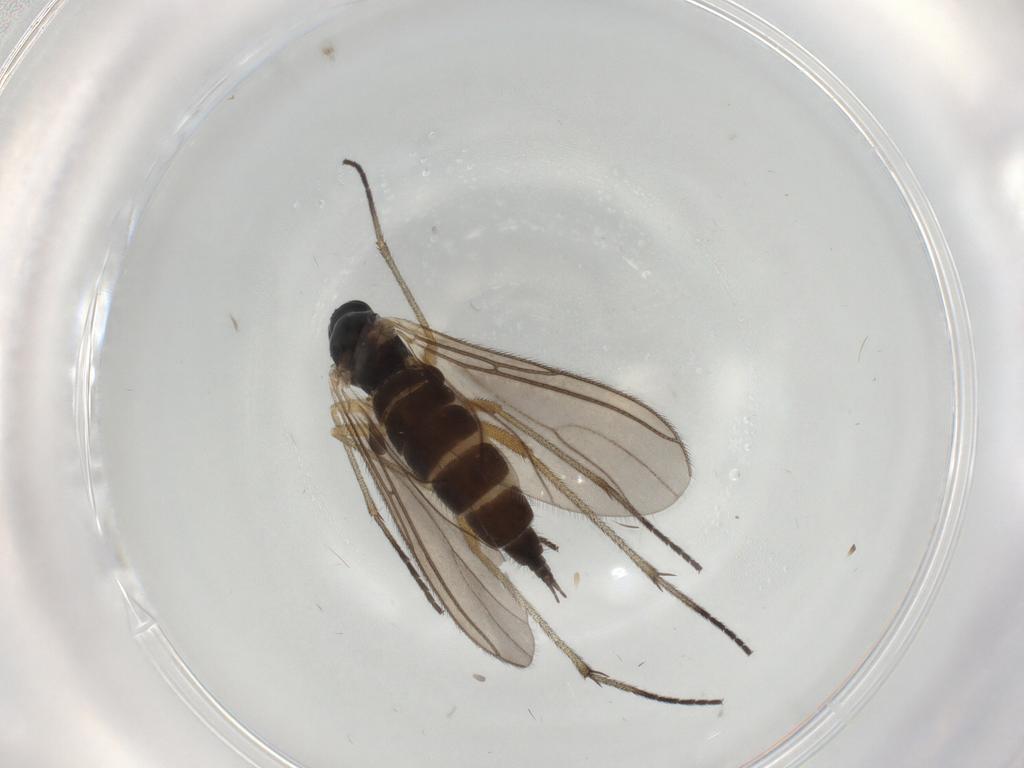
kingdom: Animalia
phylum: Arthropoda
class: Insecta
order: Diptera
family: Sciaridae
